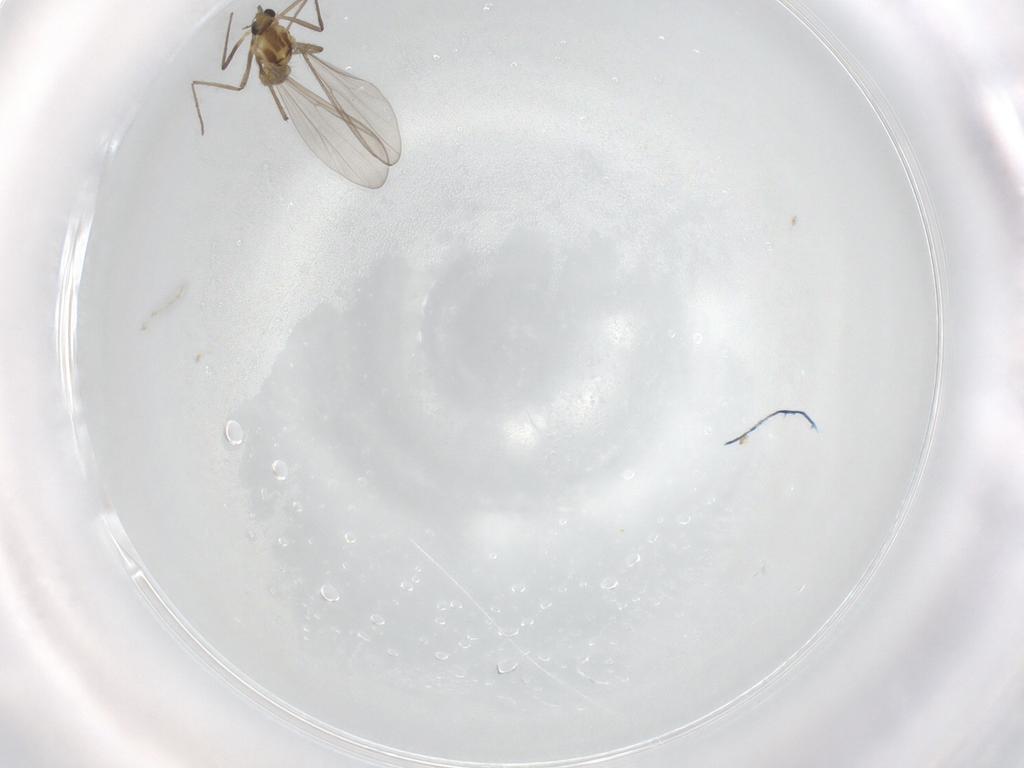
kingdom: Animalia
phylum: Arthropoda
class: Insecta
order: Diptera
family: Chironomidae
